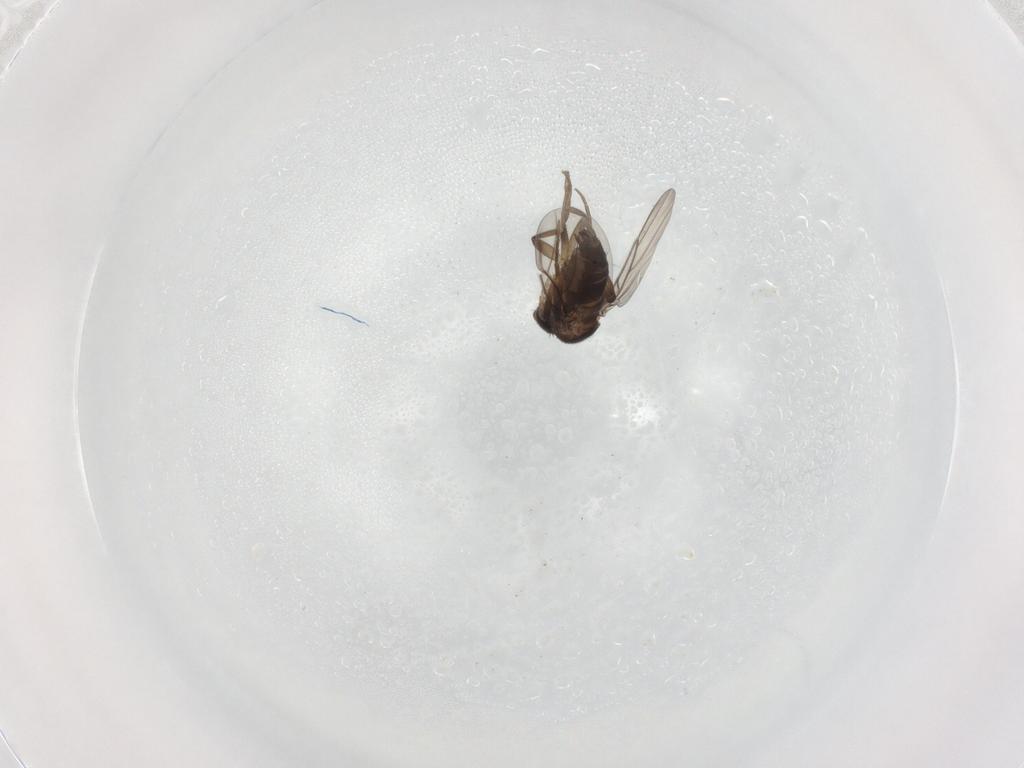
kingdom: Animalia
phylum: Arthropoda
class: Insecta
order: Diptera
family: Phoridae
